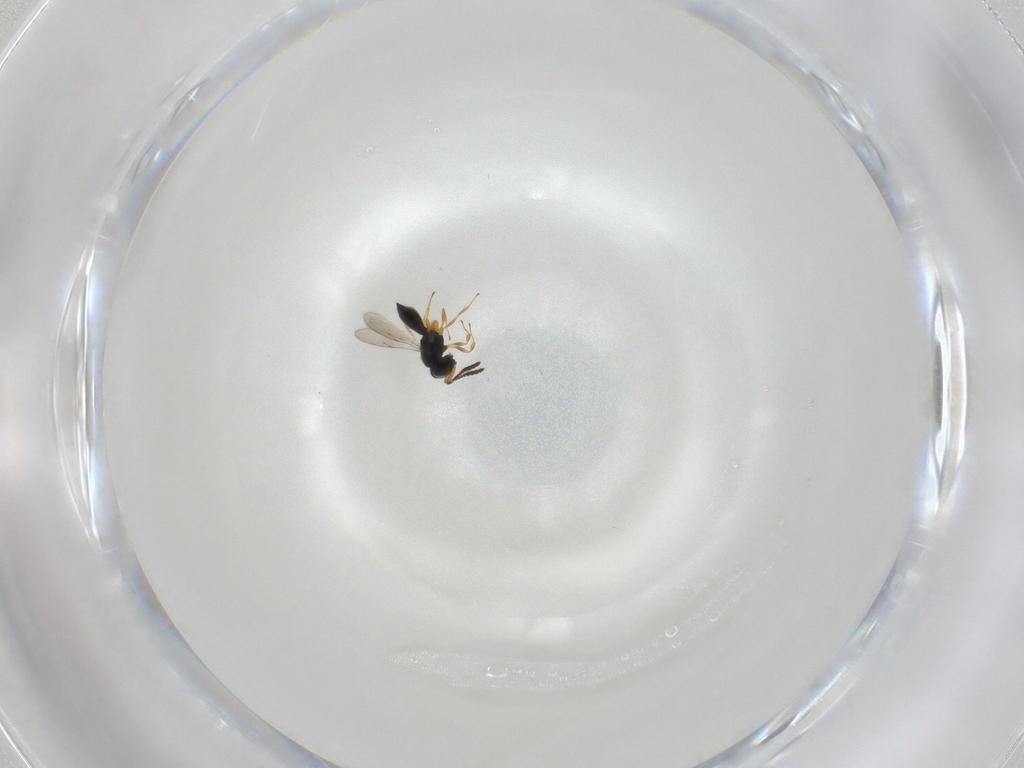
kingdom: Animalia
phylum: Arthropoda
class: Insecta
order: Hymenoptera
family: Scelionidae
